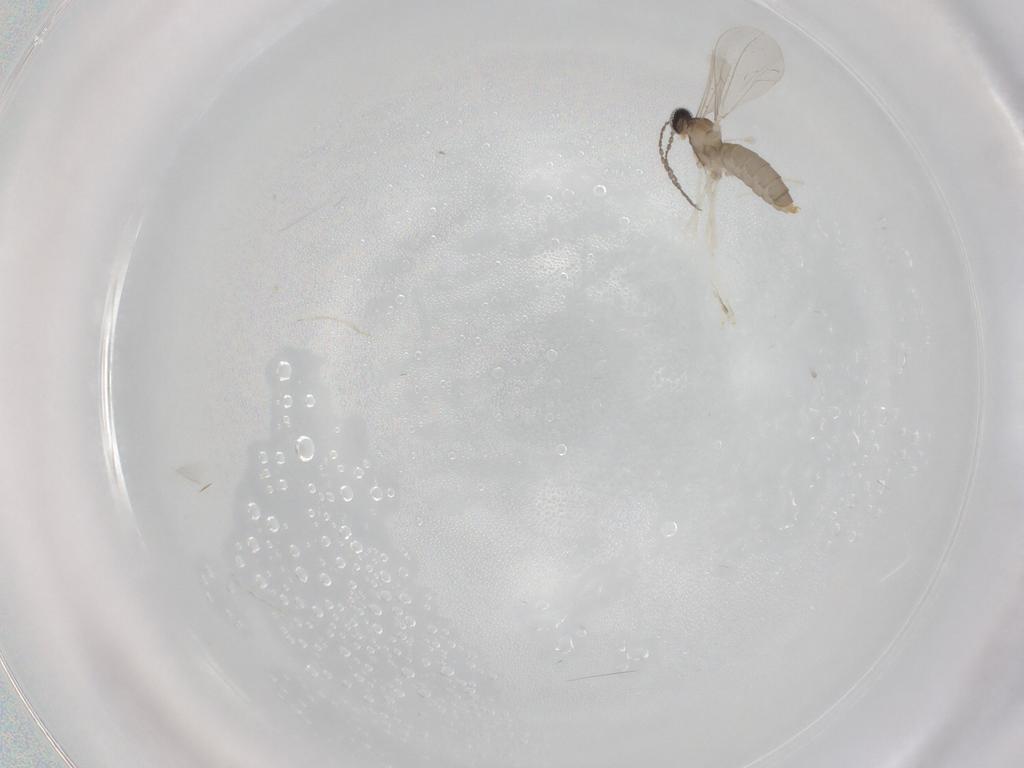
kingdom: Animalia
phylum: Arthropoda
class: Insecta
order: Diptera
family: Cecidomyiidae
